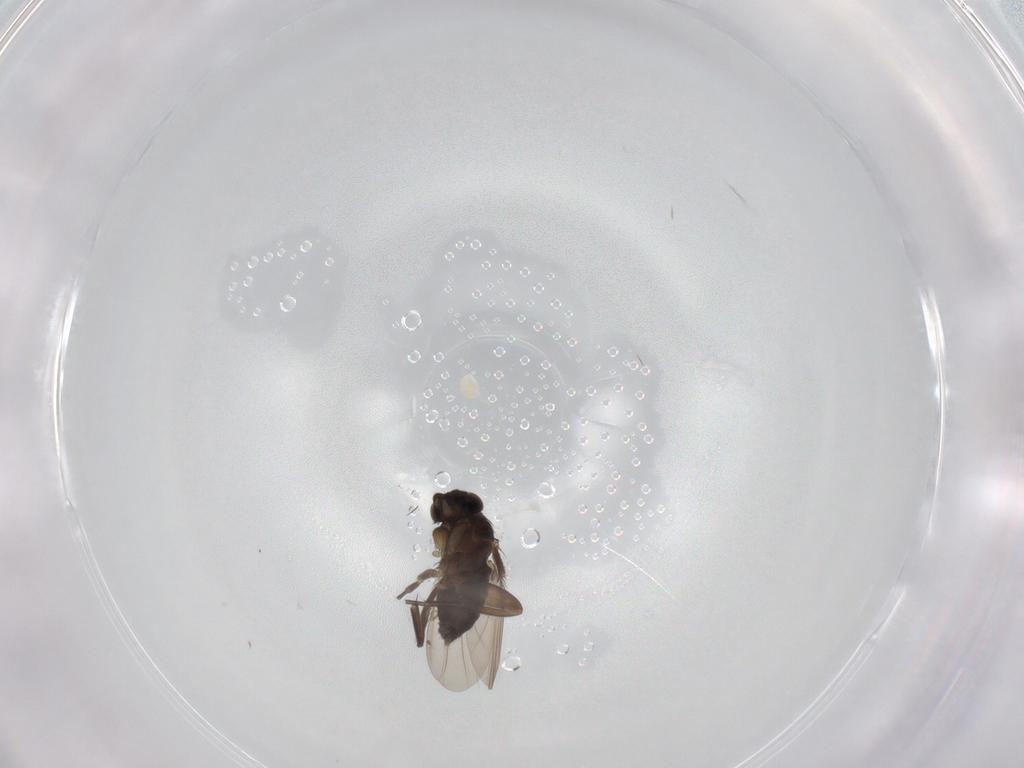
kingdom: Animalia
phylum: Arthropoda
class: Insecta
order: Diptera
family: Phoridae
